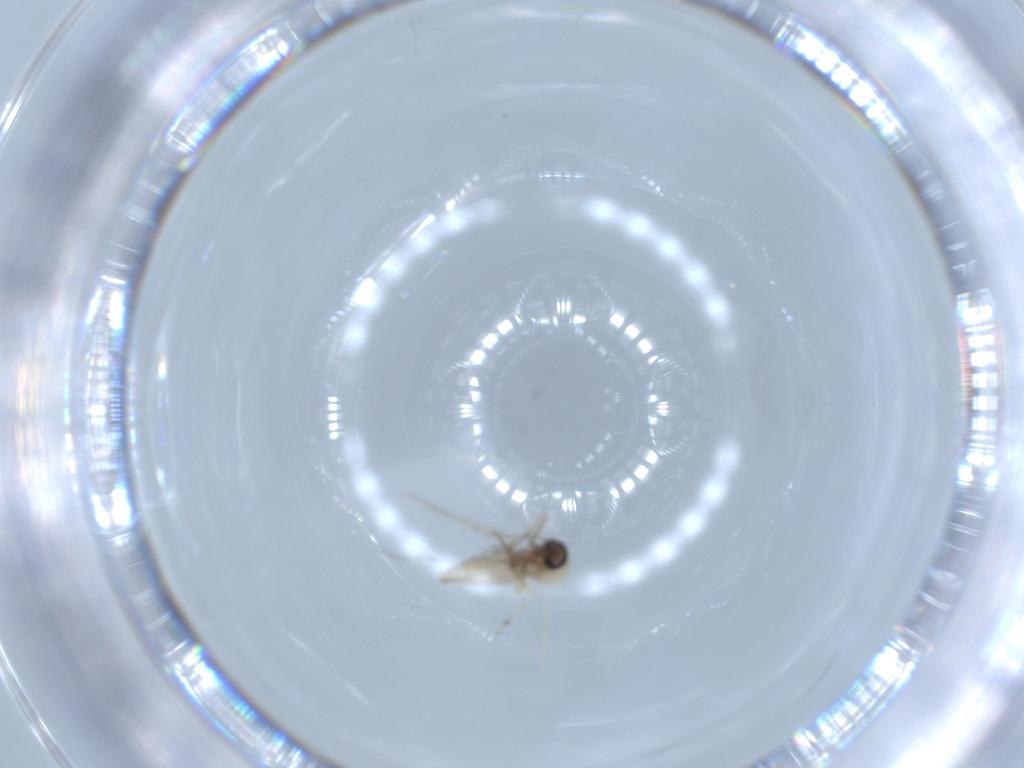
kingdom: Animalia
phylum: Arthropoda
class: Insecta
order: Diptera
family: Ceratopogonidae
